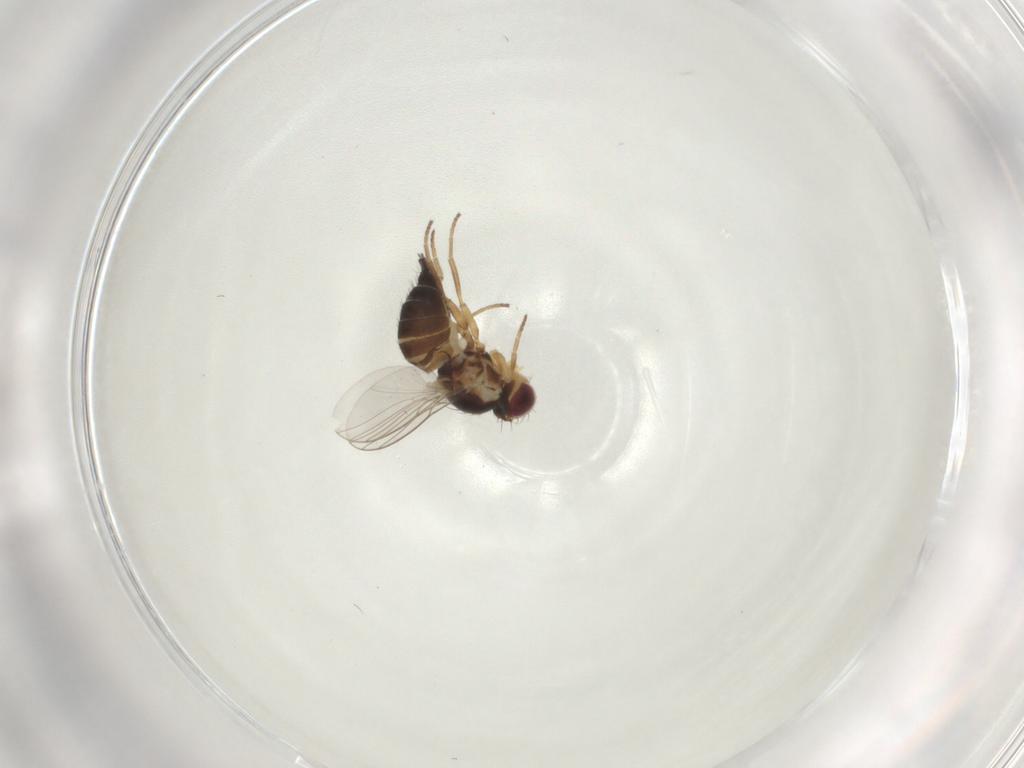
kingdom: Animalia
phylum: Arthropoda
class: Insecta
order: Diptera
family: Agromyzidae
